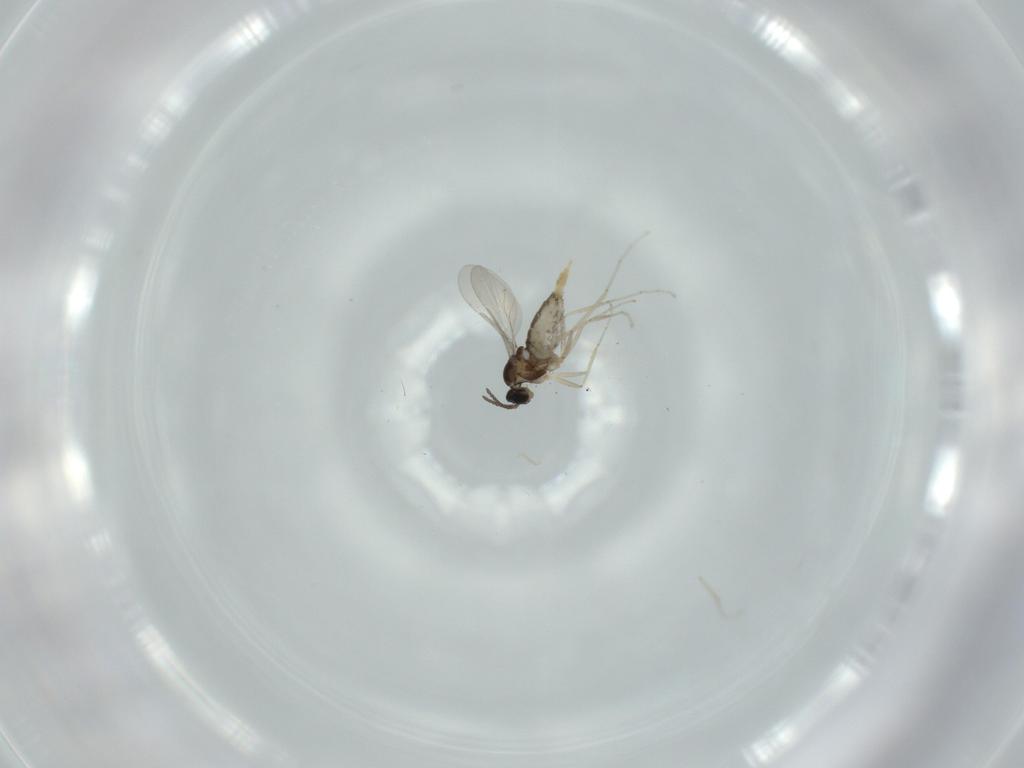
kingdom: Animalia
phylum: Arthropoda
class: Insecta
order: Diptera
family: Cecidomyiidae
